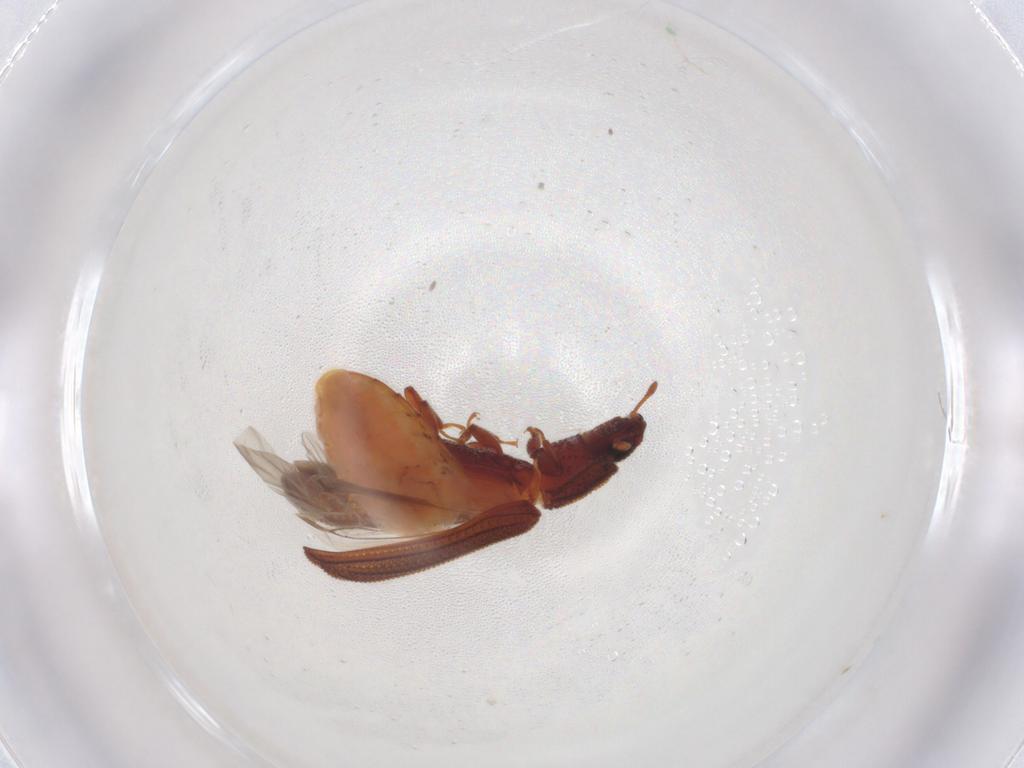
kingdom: Animalia
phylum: Arthropoda
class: Insecta
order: Coleoptera
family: Zopheridae
